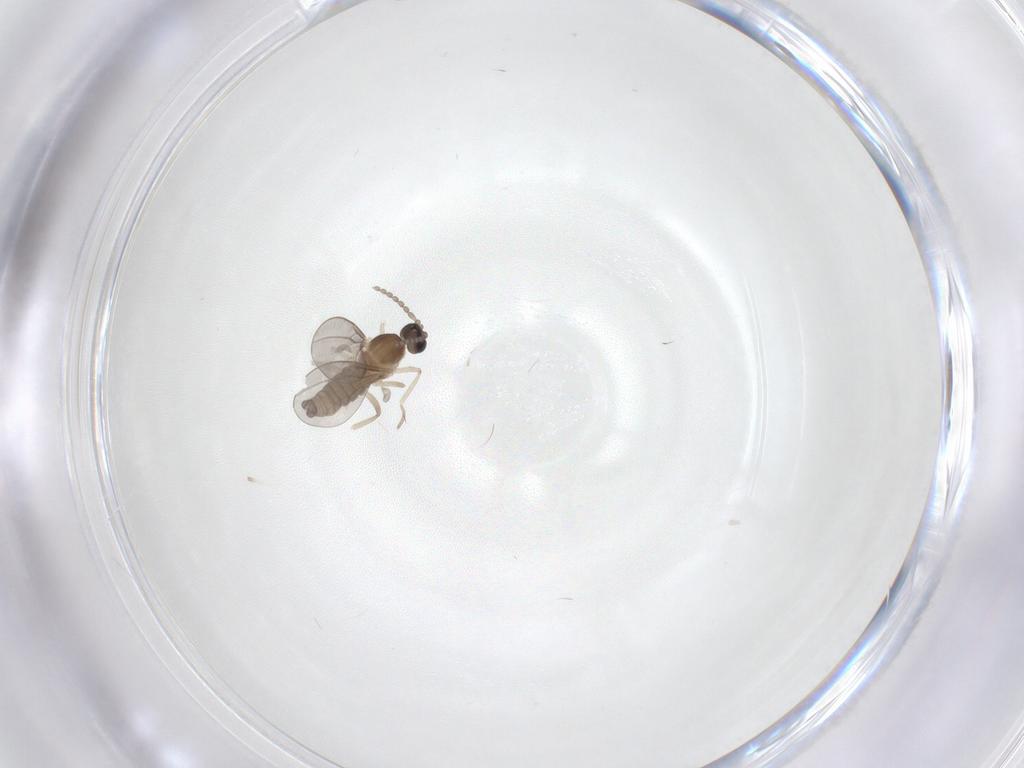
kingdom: Animalia
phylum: Arthropoda
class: Insecta
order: Diptera
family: Cecidomyiidae
